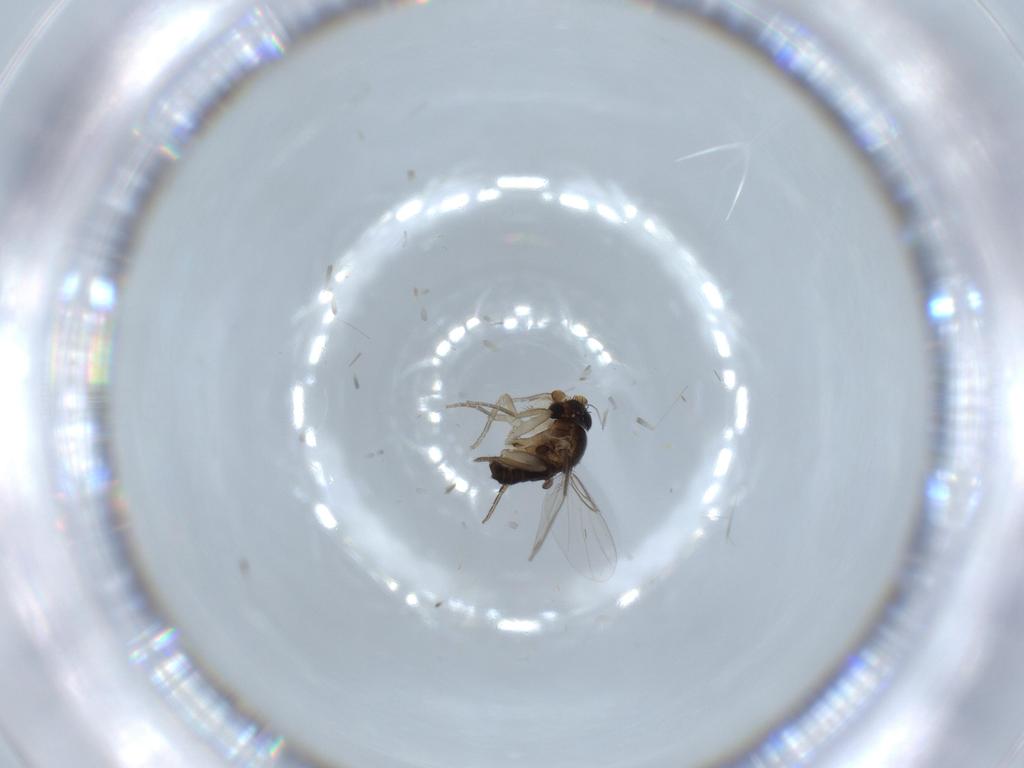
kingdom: Animalia
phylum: Arthropoda
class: Insecta
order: Diptera
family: Phoridae
